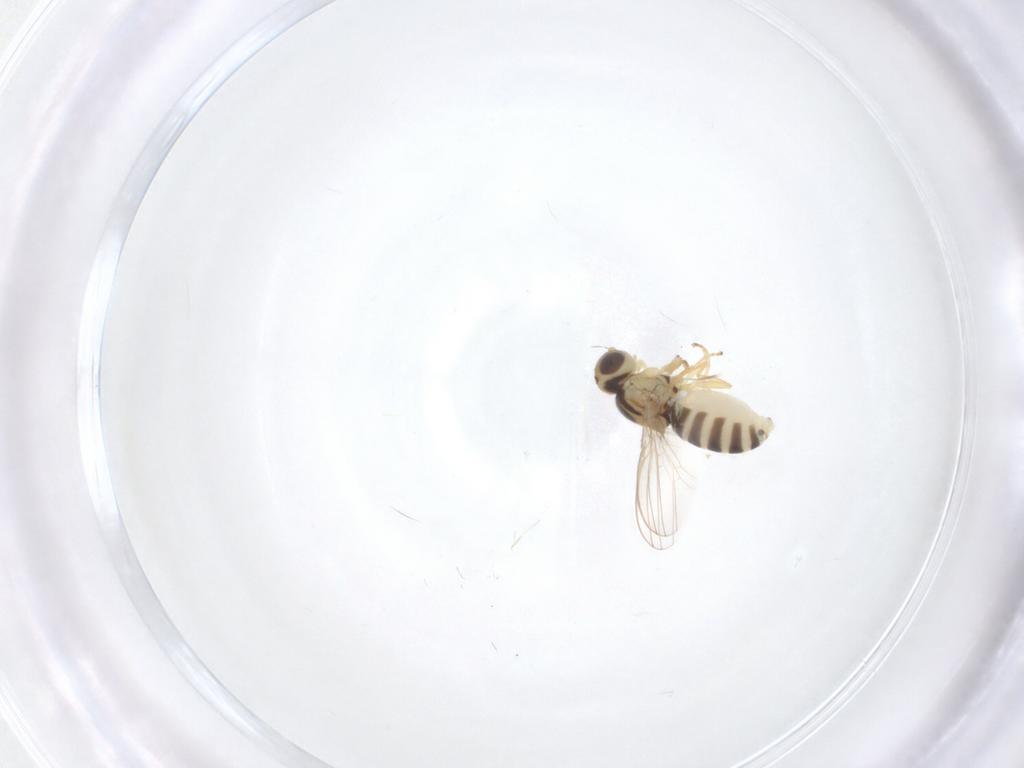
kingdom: Animalia
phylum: Arthropoda
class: Insecta
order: Diptera
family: Chyromyidae
